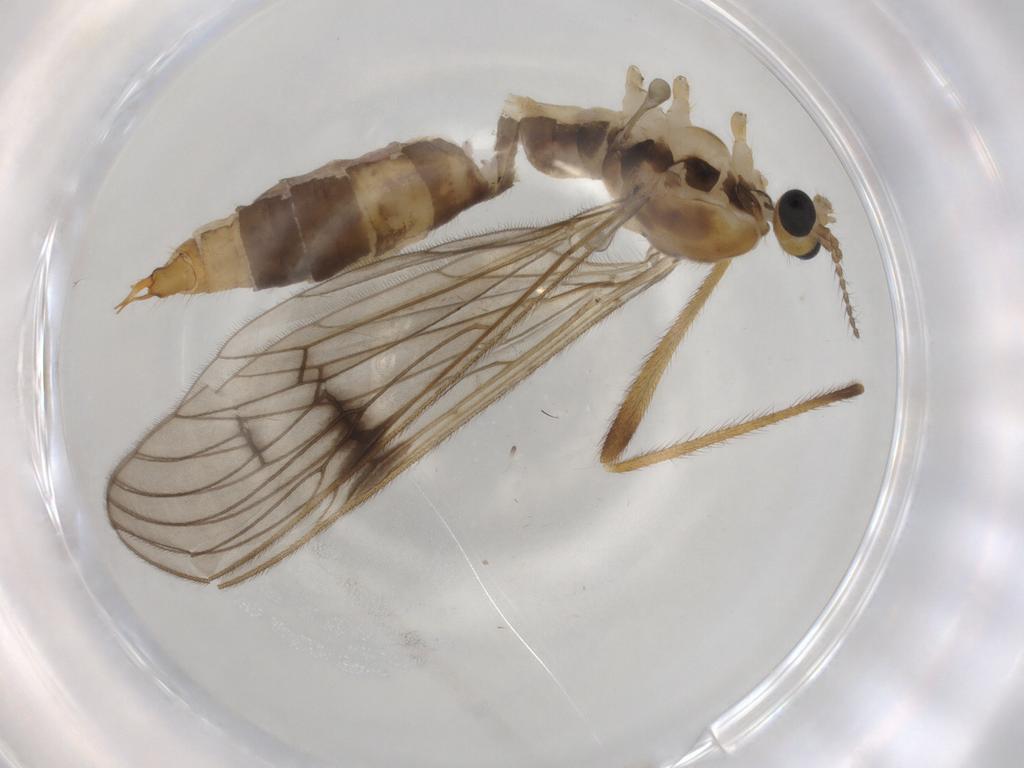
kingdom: Animalia
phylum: Arthropoda
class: Insecta
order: Diptera
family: Limoniidae
